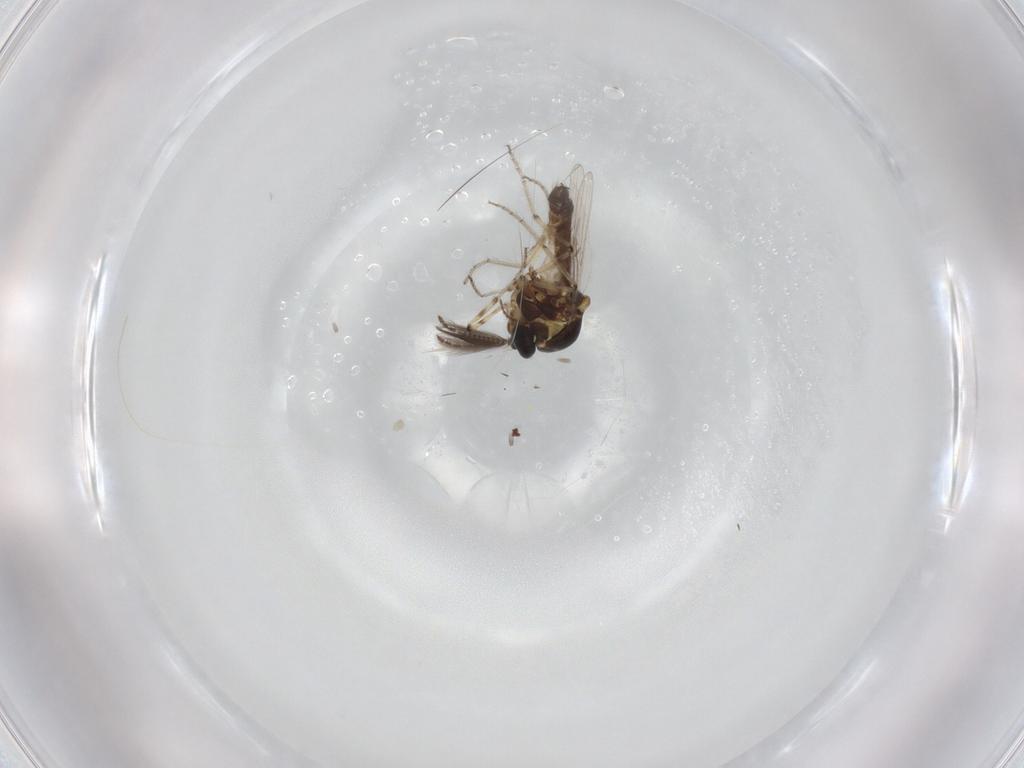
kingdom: Animalia
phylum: Arthropoda
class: Insecta
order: Diptera
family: Ceratopogonidae
